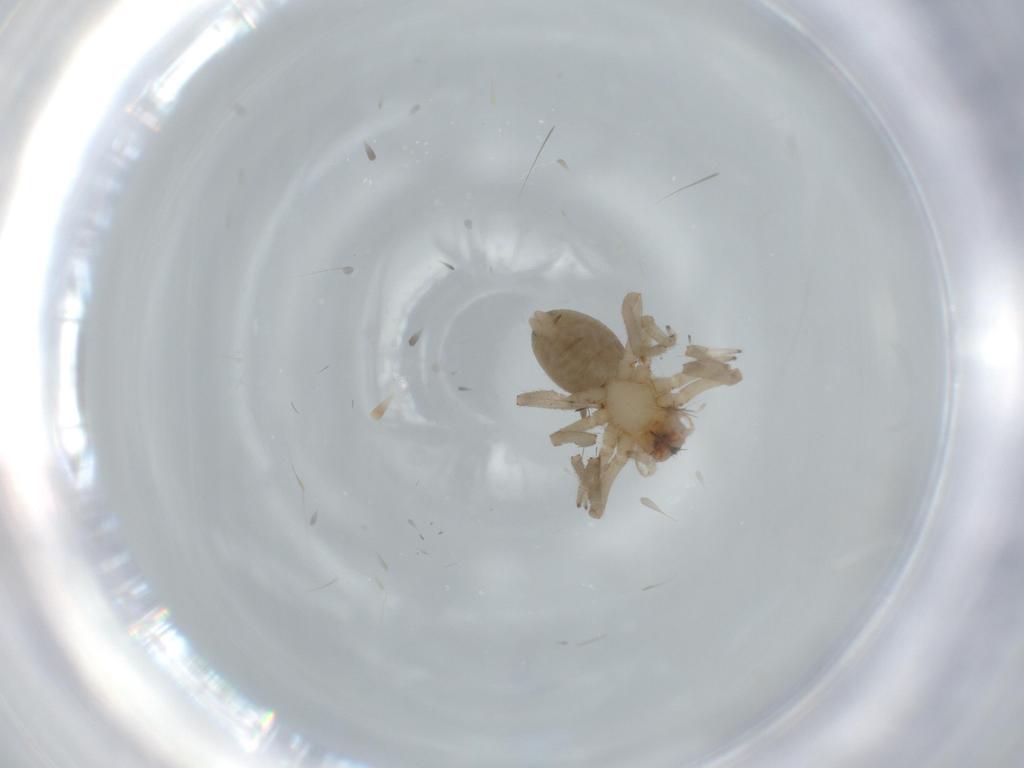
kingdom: Animalia
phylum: Arthropoda
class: Arachnida
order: Araneae
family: Trachelidae
